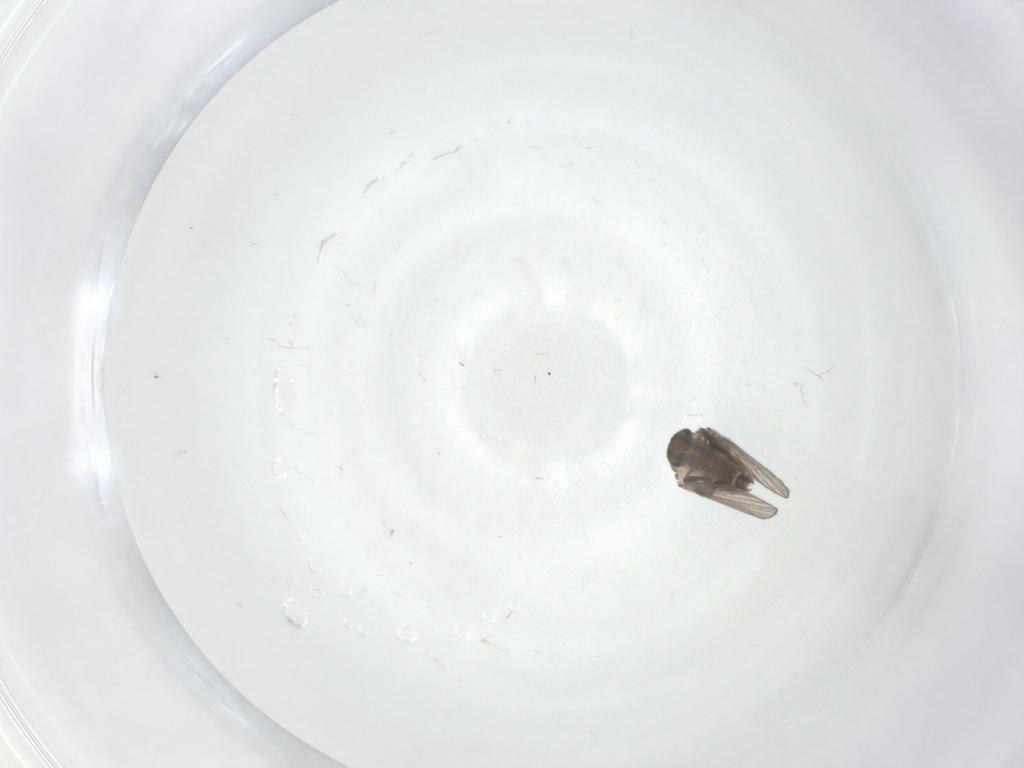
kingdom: Animalia
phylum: Arthropoda
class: Insecta
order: Diptera
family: Psychodidae
